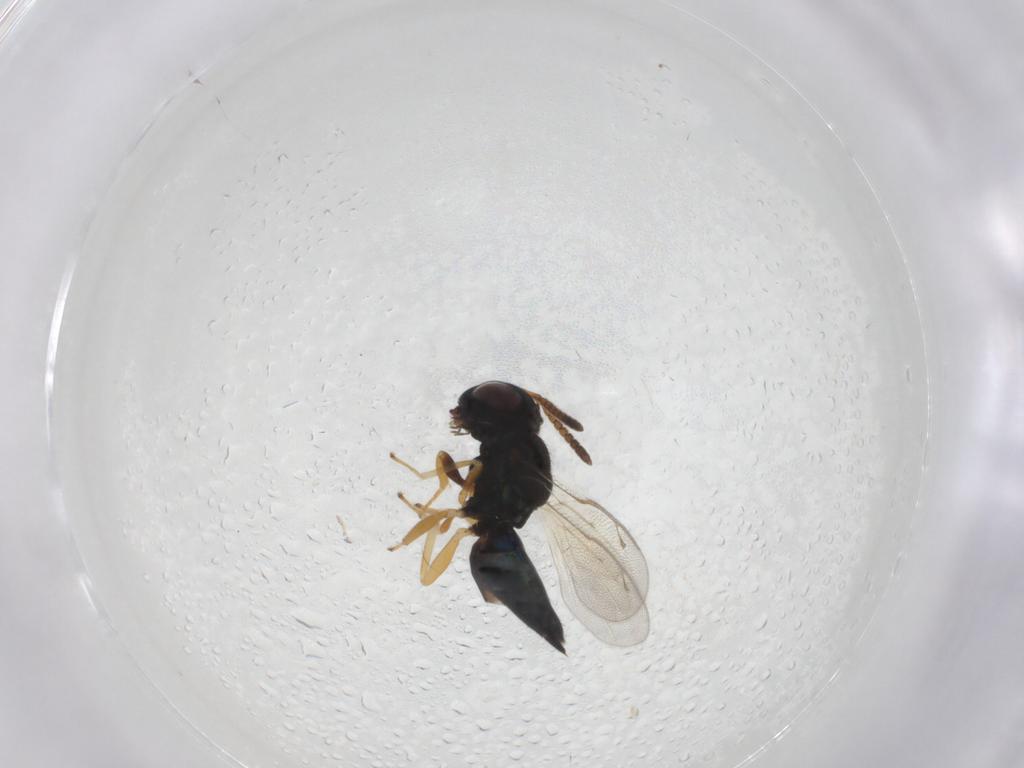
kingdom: Animalia
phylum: Arthropoda
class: Insecta
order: Hymenoptera
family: Pteromalidae
